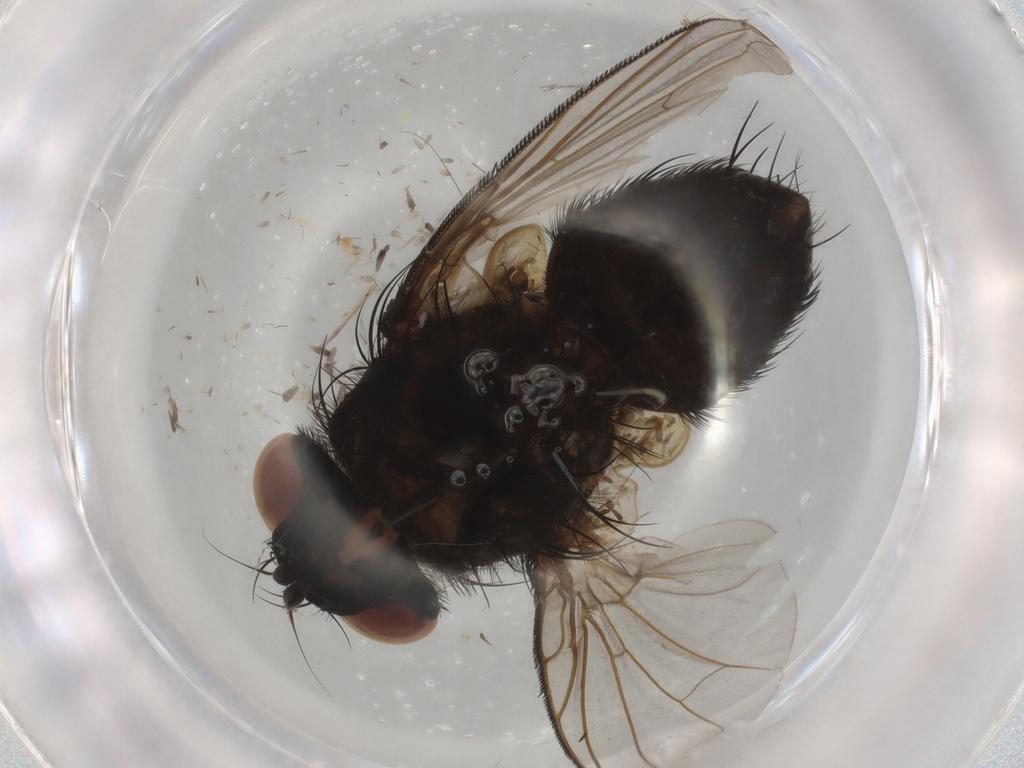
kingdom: Animalia
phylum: Arthropoda
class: Insecta
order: Diptera
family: Tachinidae
